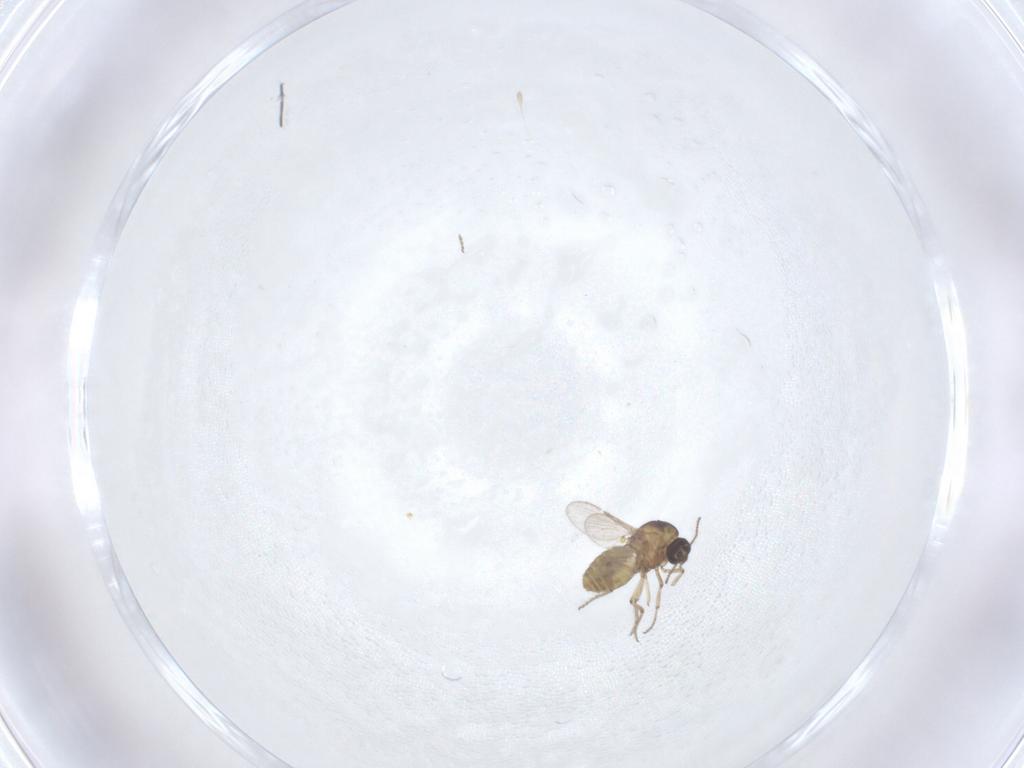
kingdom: Animalia
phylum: Arthropoda
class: Insecta
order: Diptera
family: Ceratopogonidae
